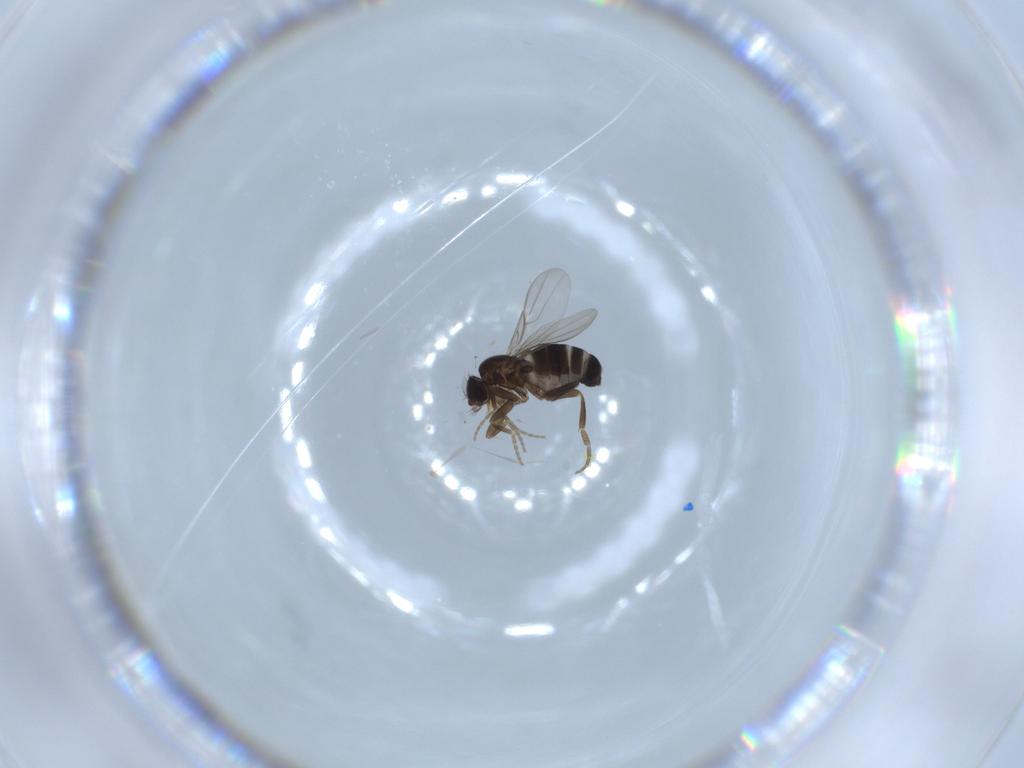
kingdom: Animalia
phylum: Arthropoda
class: Insecta
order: Diptera
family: Phoridae
